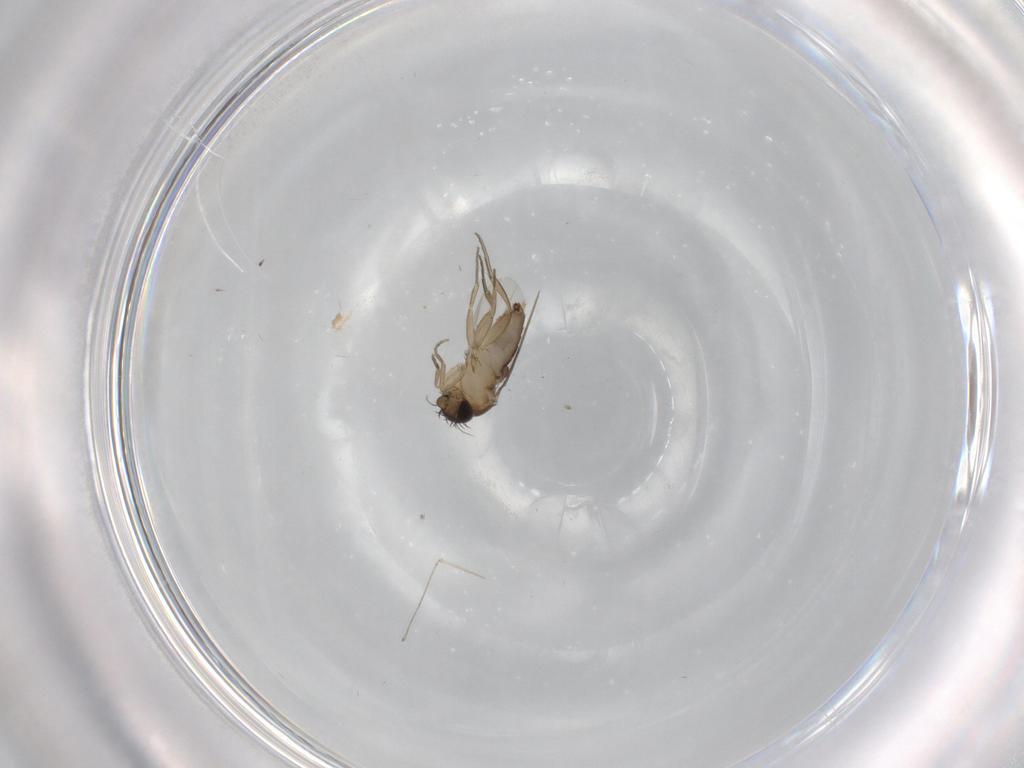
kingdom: Animalia
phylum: Arthropoda
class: Insecta
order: Diptera
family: Phoridae
